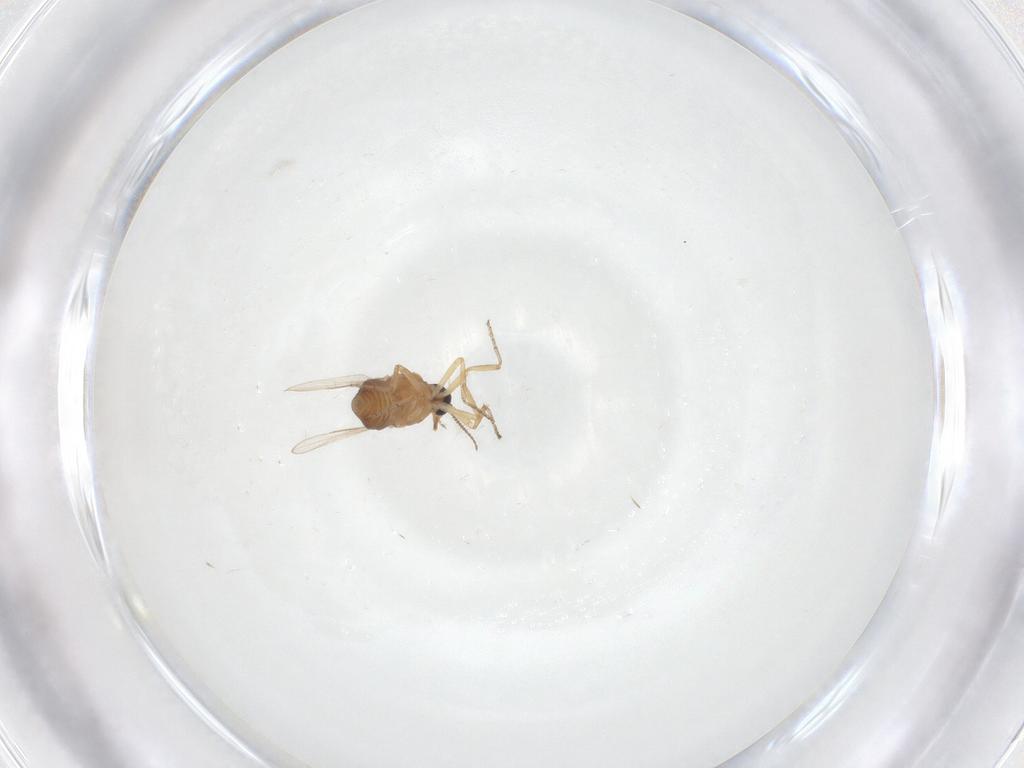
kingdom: Animalia
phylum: Arthropoda
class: Insecta
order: Diptera
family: Ceratopogonidae
